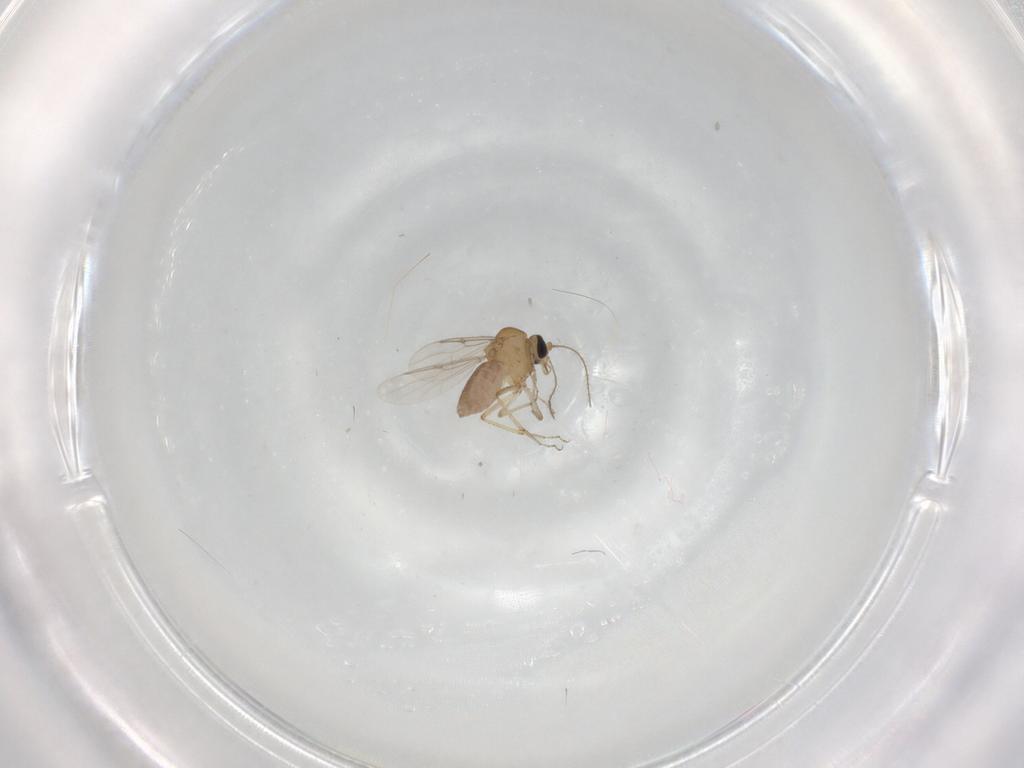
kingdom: Animalia
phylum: Arthropoda
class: Insecta
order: Diptera
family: Ceratopogonidae
